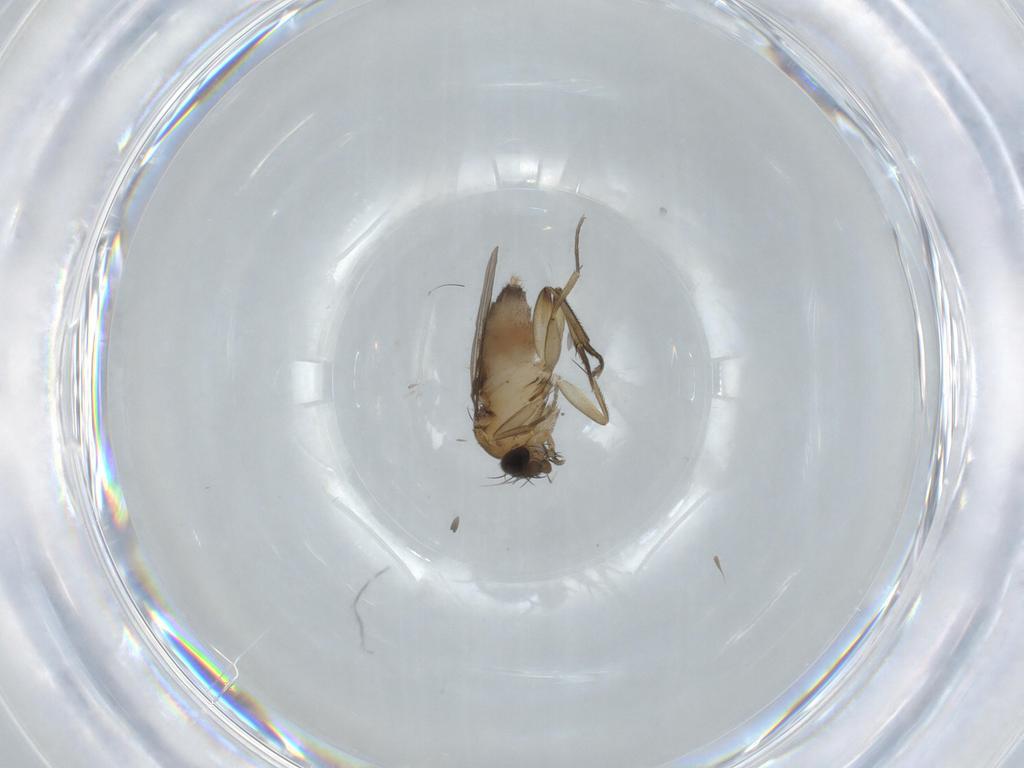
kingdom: Animalia
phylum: Arthropoda
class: Insecta
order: Diptera
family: Phoridae
